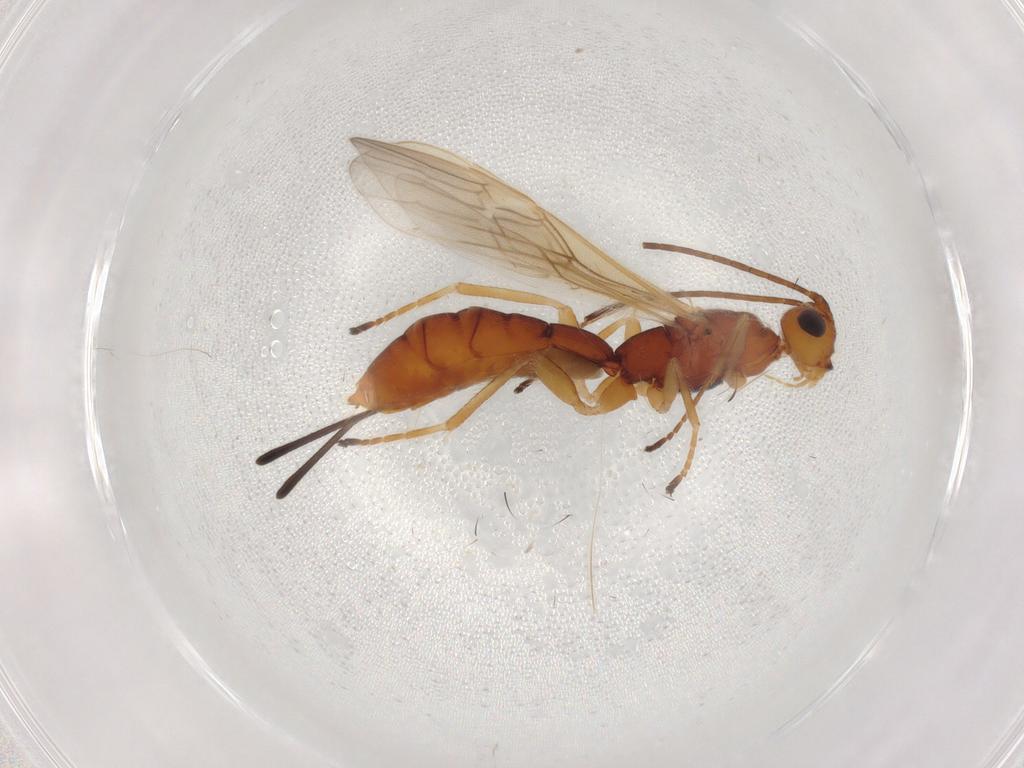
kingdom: Animalia
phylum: Arthropoda
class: Insecta
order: Hymenoptera
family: Braconidae
